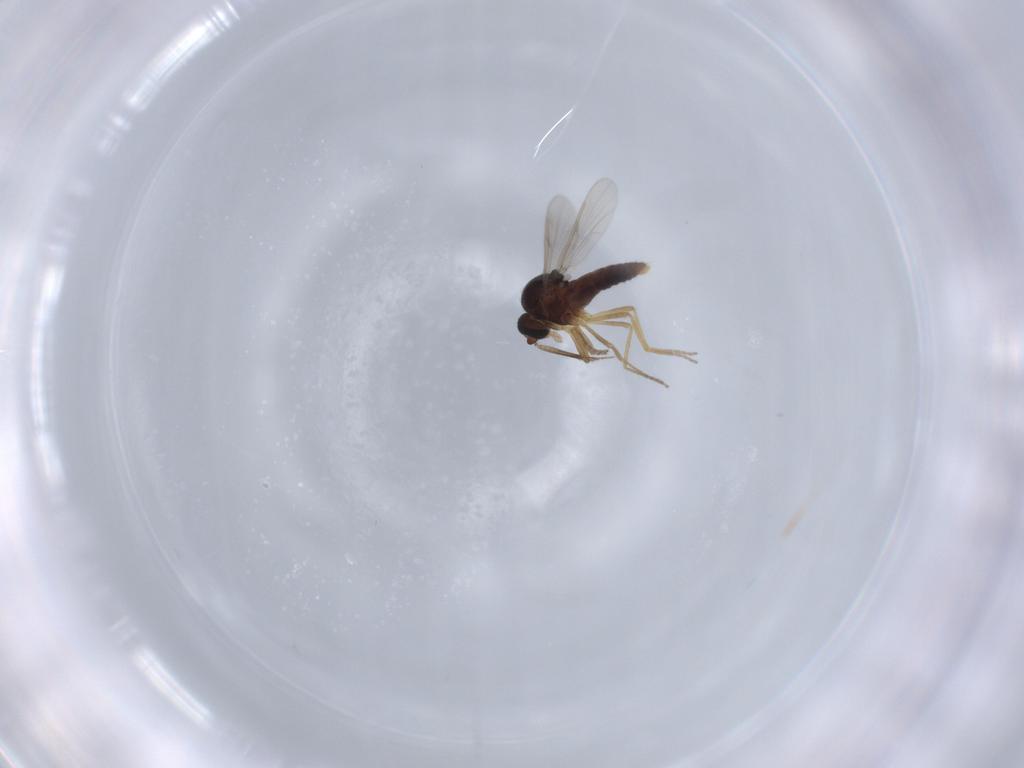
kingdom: Animalia
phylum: Arthropoda
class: Insecta
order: Diptera
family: Ceratopogonidae
